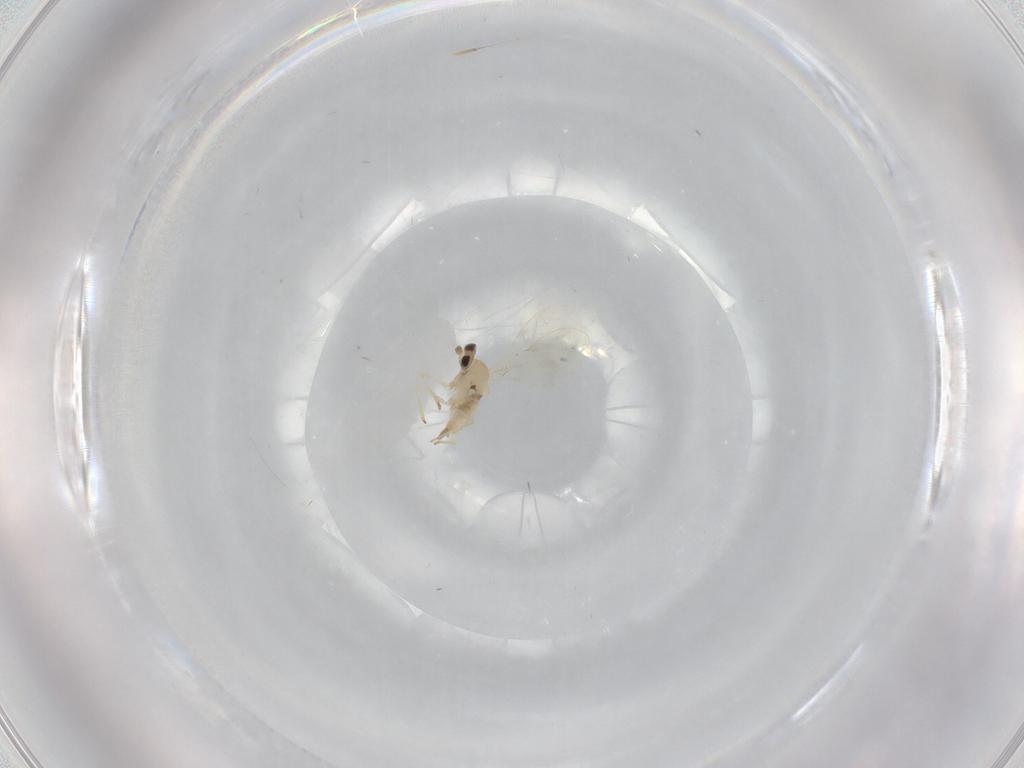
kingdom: Animalia
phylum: Arthropoda
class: Insecta
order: Diptera
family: Cecidomyiidae
